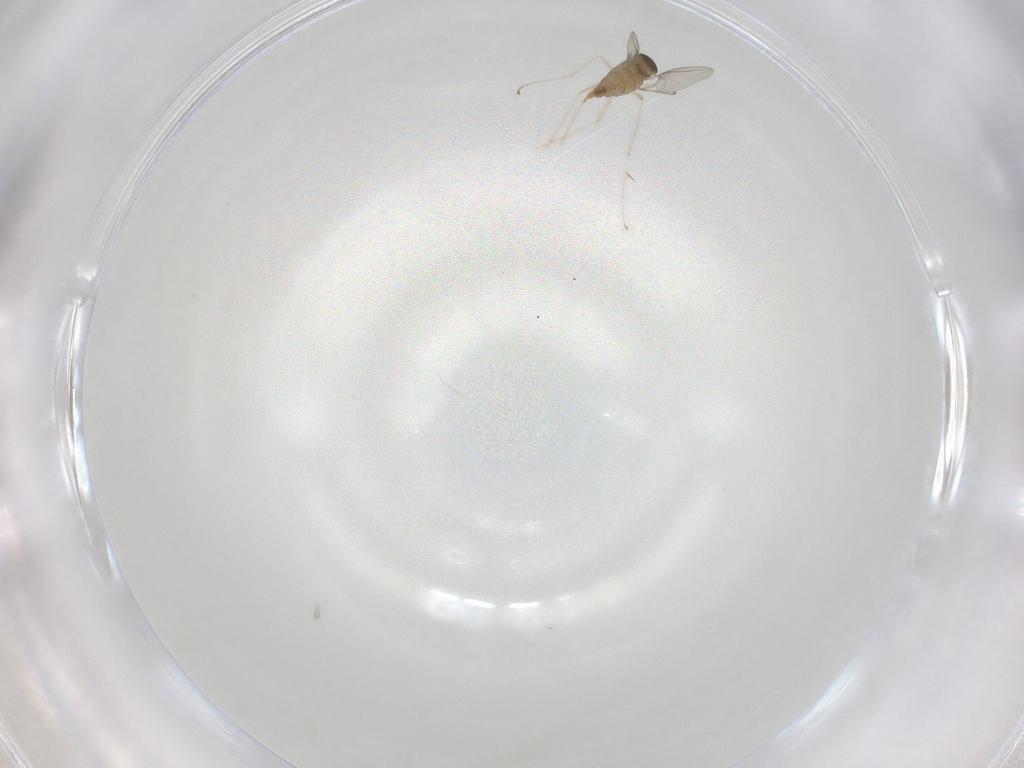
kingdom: Animalia
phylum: Arthropoda
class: Insecta
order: Diptera
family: Cecidomyiidae
